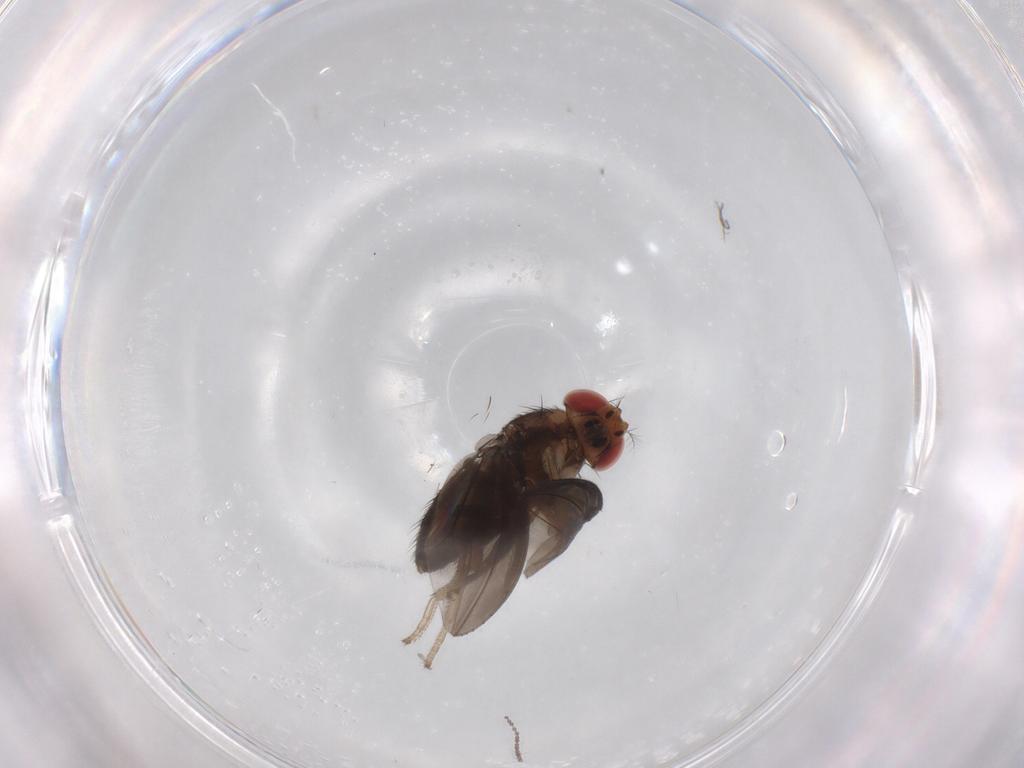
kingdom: Animalia
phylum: Arthropoda
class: Insecta
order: Diptera
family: Drosophilidae
